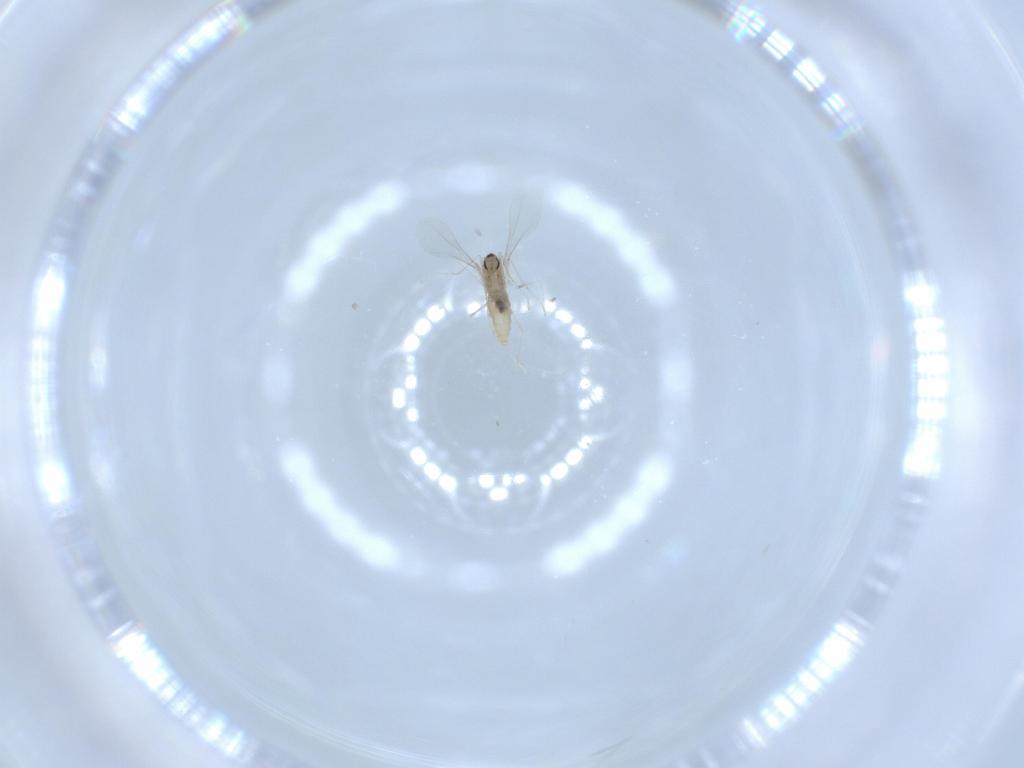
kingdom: Animalia
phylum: Arthropoda
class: Insecta
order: Diptera
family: Cecidomyiidae
